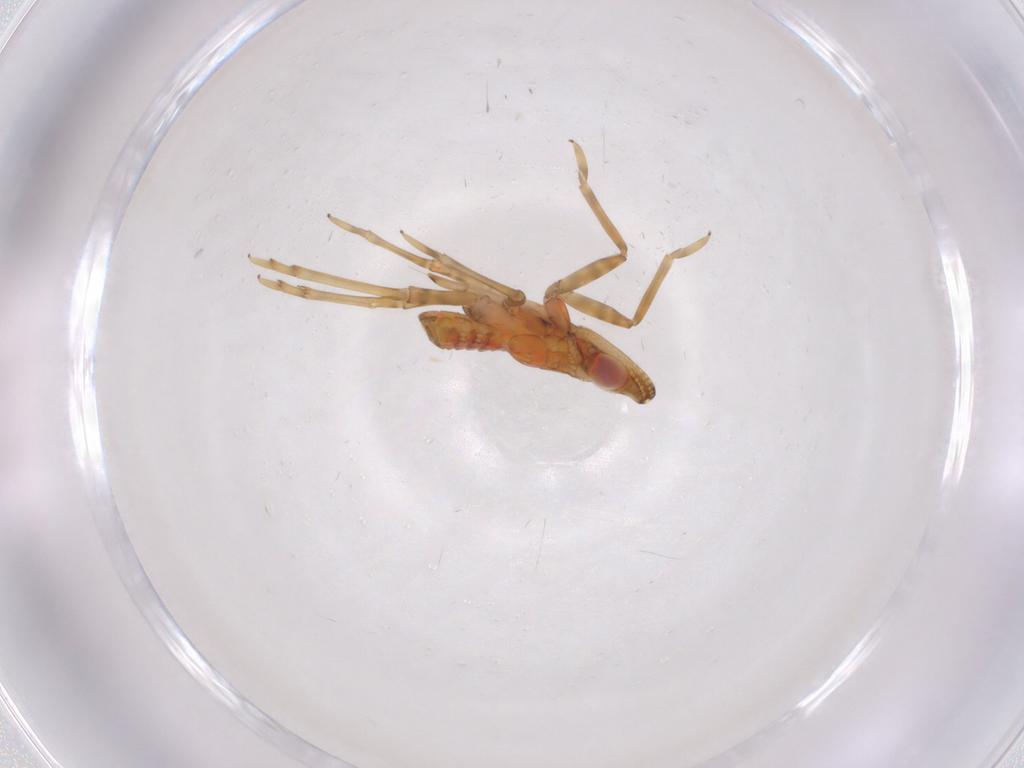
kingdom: Animalia
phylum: Arthropoda
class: Insecta
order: Hemiptera
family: Fulgoroidea_incertae_sedis
